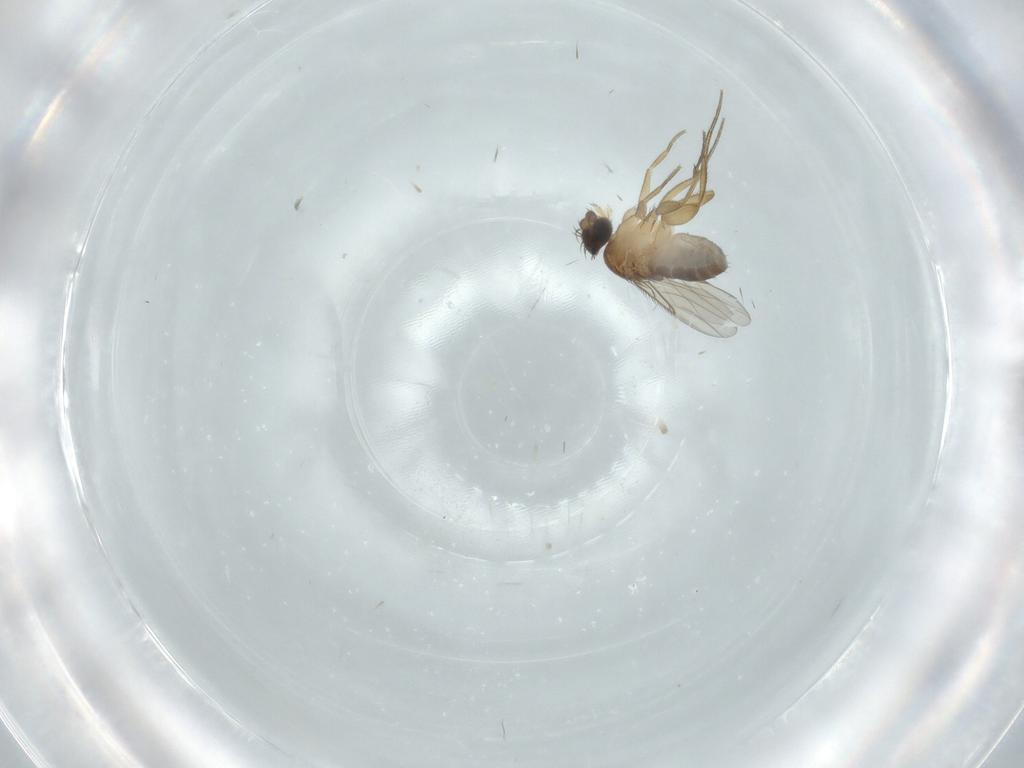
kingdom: Animalia
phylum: Arthropoda
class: Insecta
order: Diptera
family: Phoridae
